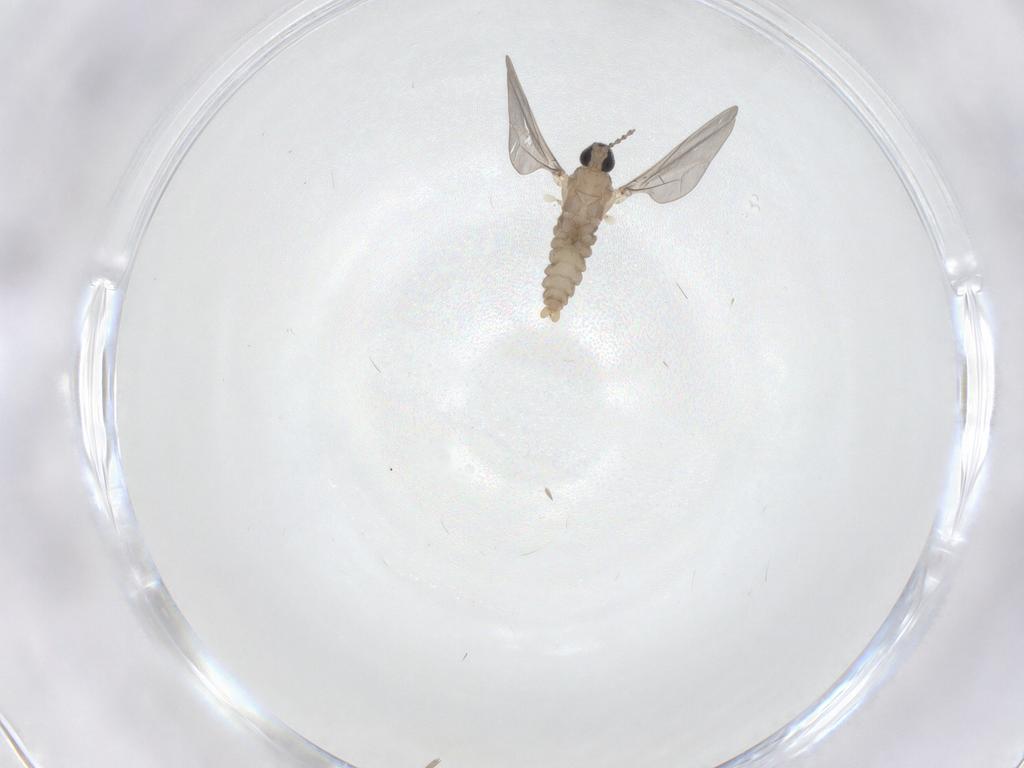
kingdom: Animalia
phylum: Arthropoda
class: Insecta
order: Diptera
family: Cecidomyiidae
